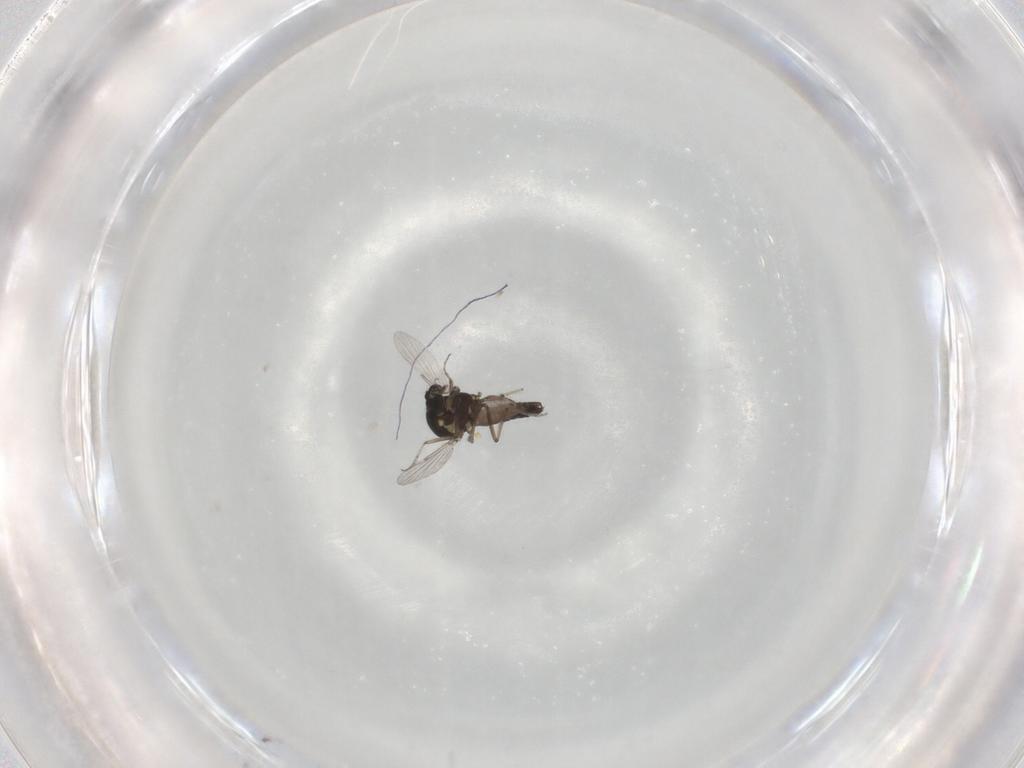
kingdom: Animalia
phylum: Arthropoda
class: Insecta
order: Diptera
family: Ceratopogonidae
